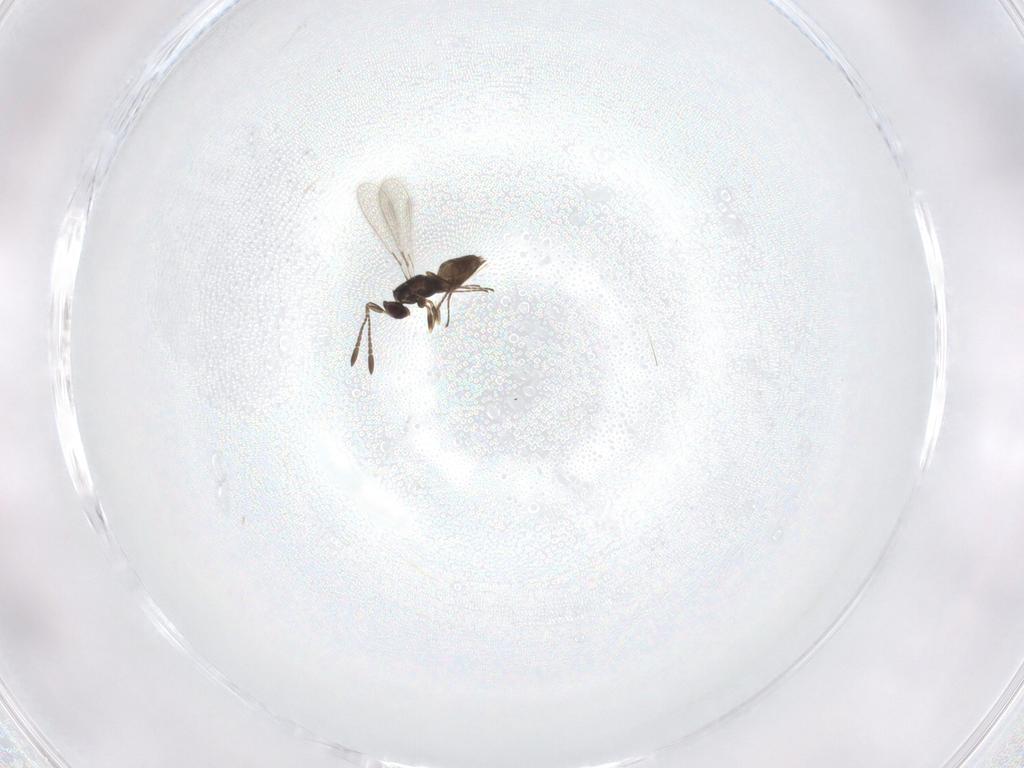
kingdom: Animalia
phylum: Arthropoda
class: Insecta
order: Hymenoptera
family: Mymaridae
